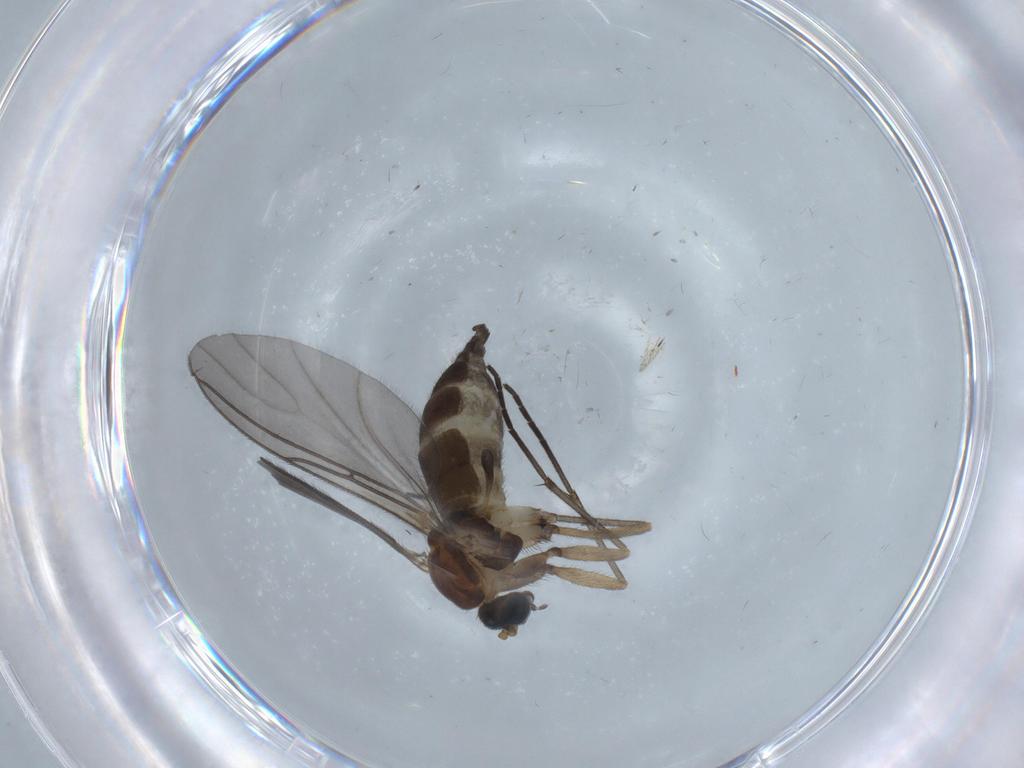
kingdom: Animalia
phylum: Arthropoda
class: Insecta
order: Diptera
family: Sciaridae
